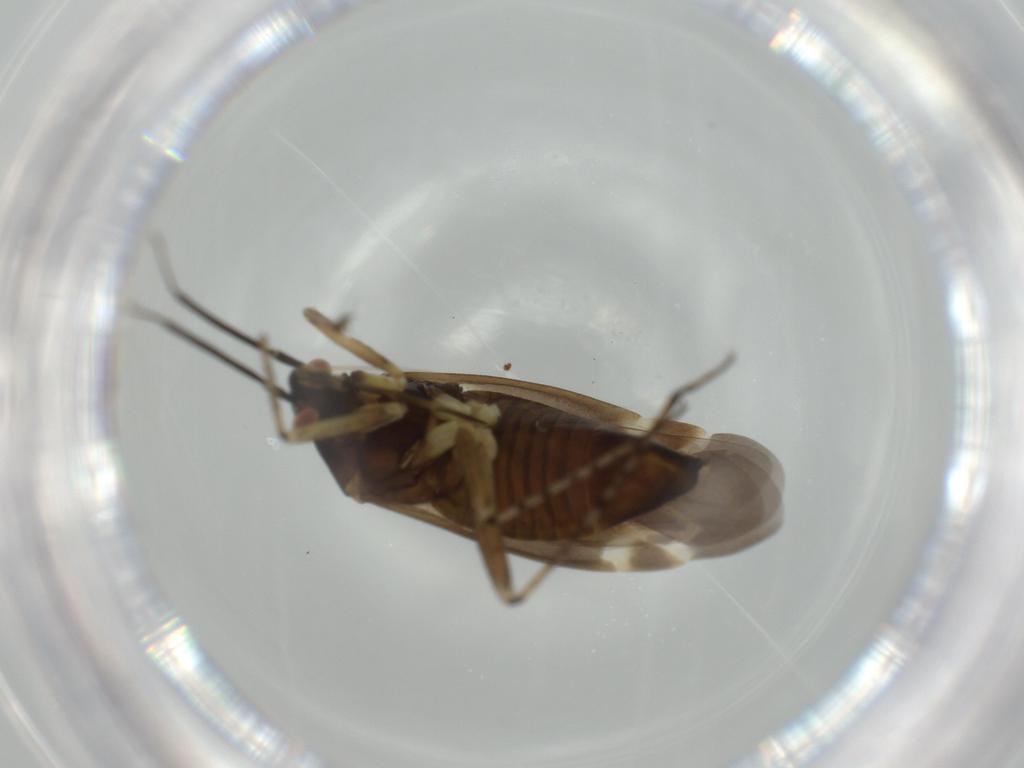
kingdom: Animalia
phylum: Arthropoda
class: Insecta
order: Hemiptera
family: Miridae
